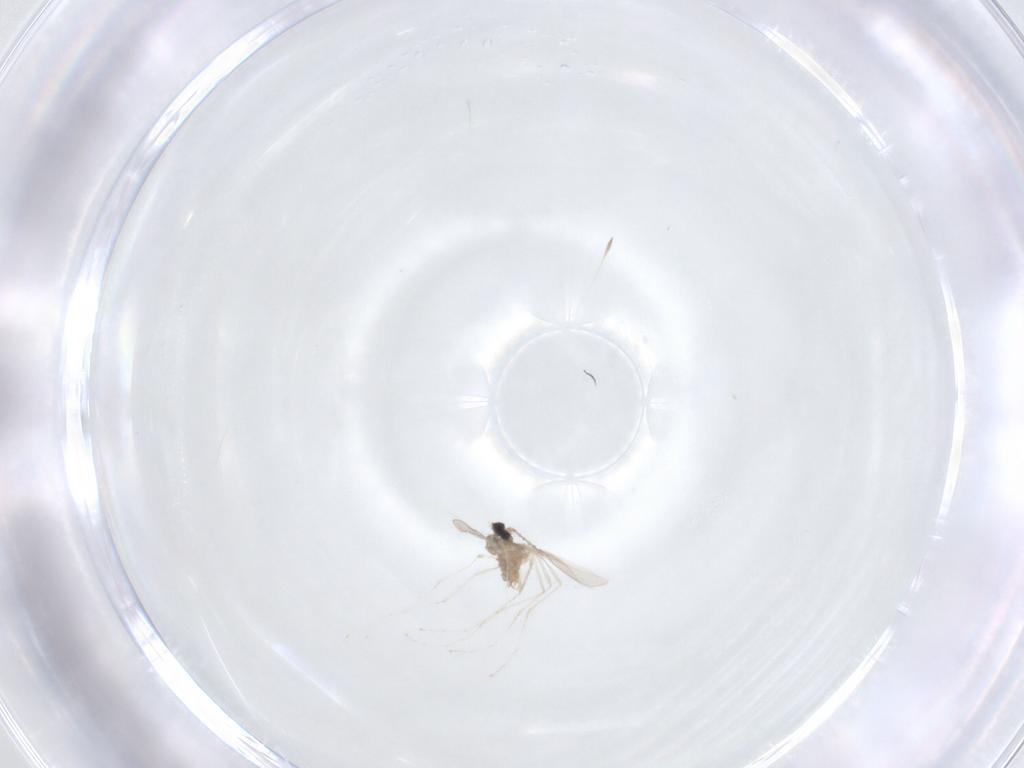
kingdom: Animalia
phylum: Arthropoda
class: Insecta
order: Diptera
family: Cecidomyiidae
